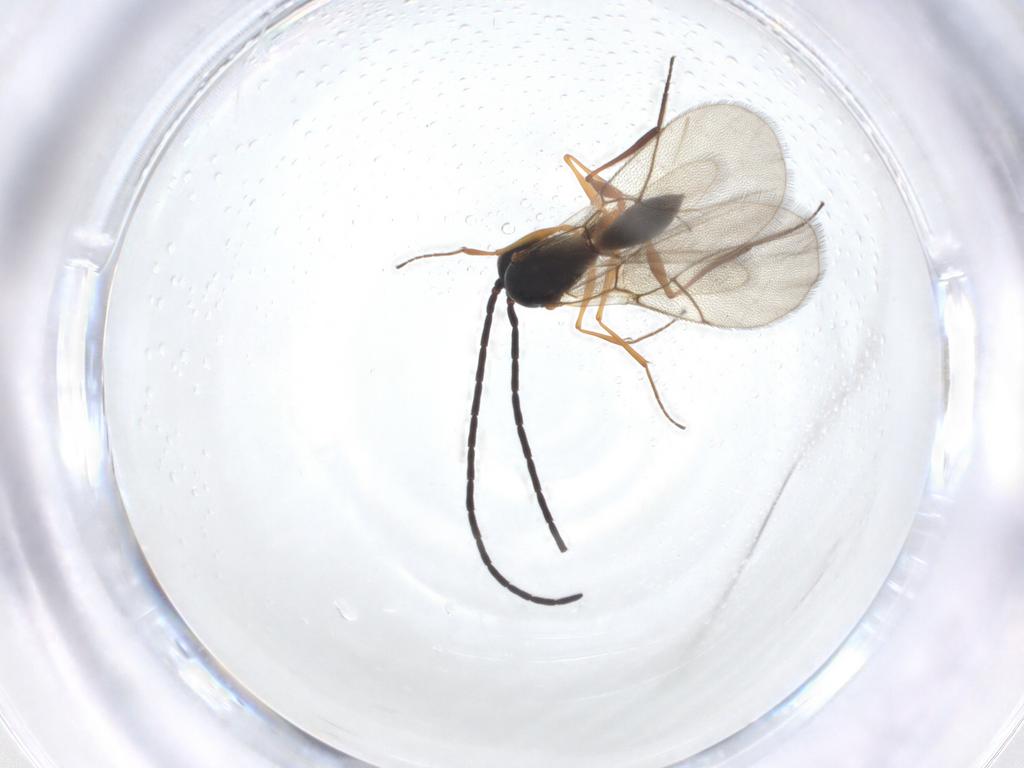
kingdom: Animalia
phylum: Arthropoda
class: Insecta
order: Hymenoptera
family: Figitidae
